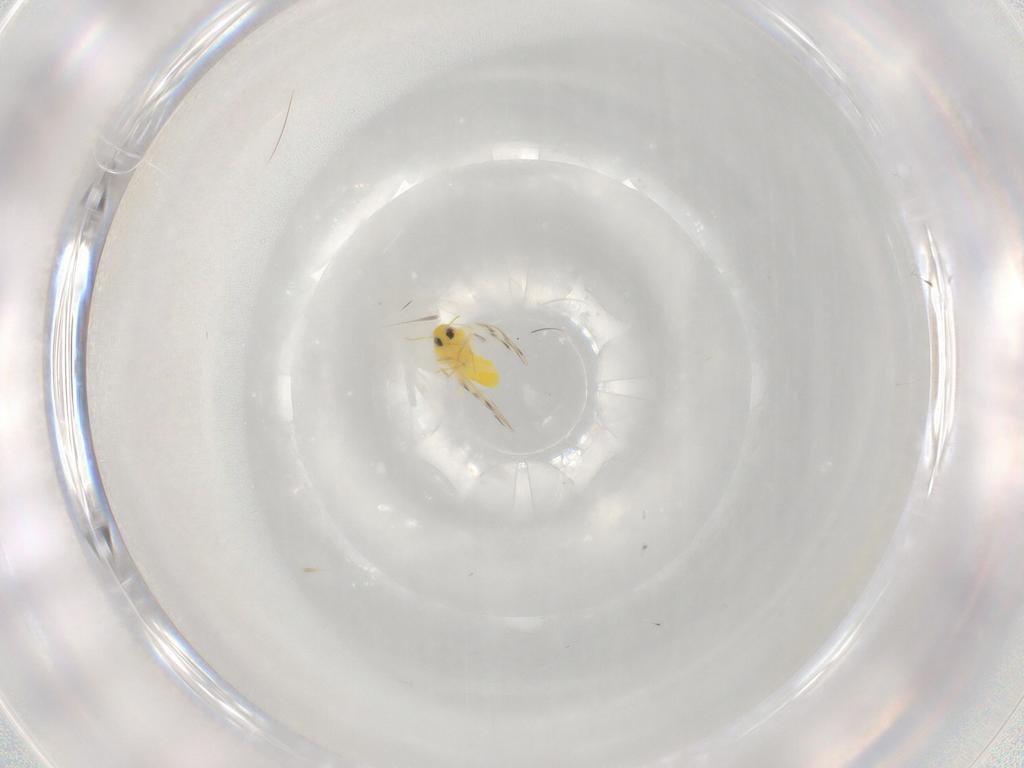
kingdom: Animalia
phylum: Arthropoda
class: Insecta
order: Hemiptera
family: Aleyrodidae
